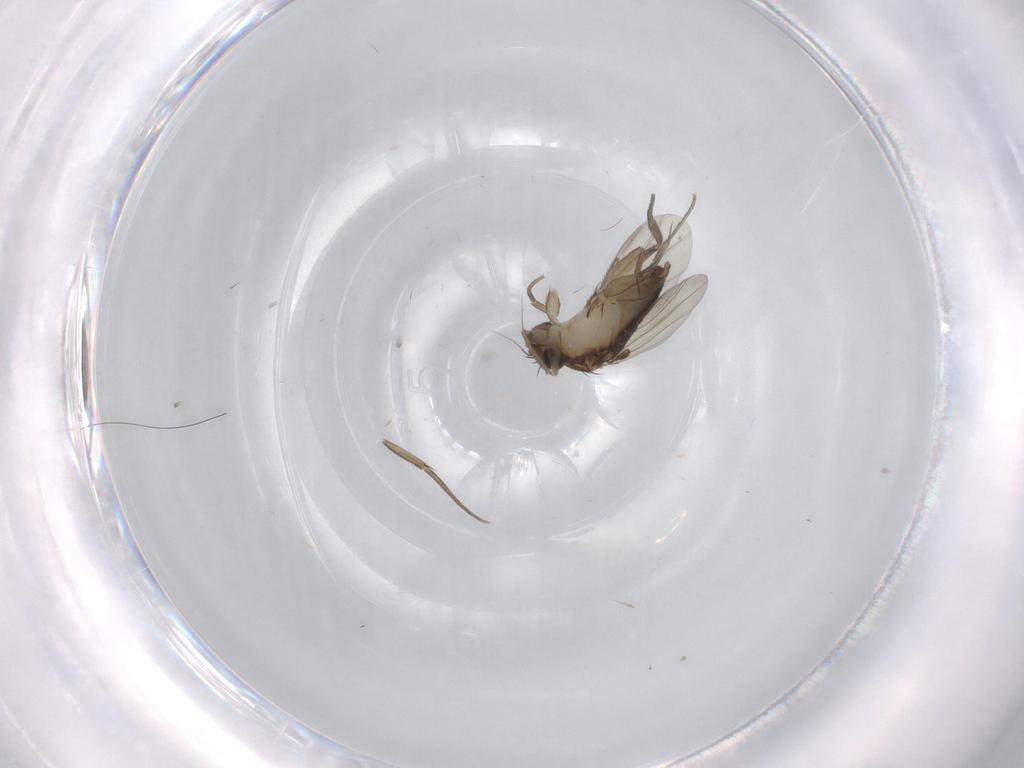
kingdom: Animalia
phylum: Arthropoda
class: Insecta
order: Diptera
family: Phoridae
